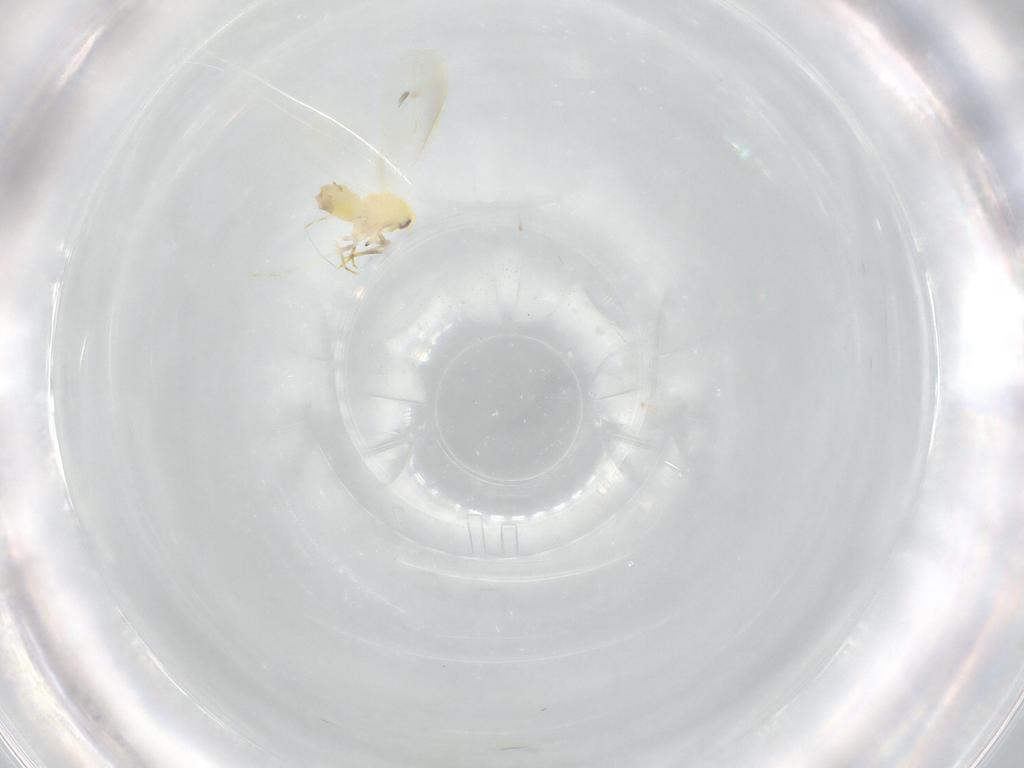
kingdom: Animalia
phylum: Arthropoda
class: Insecta
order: Hemiptera
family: Aleyrodidae
